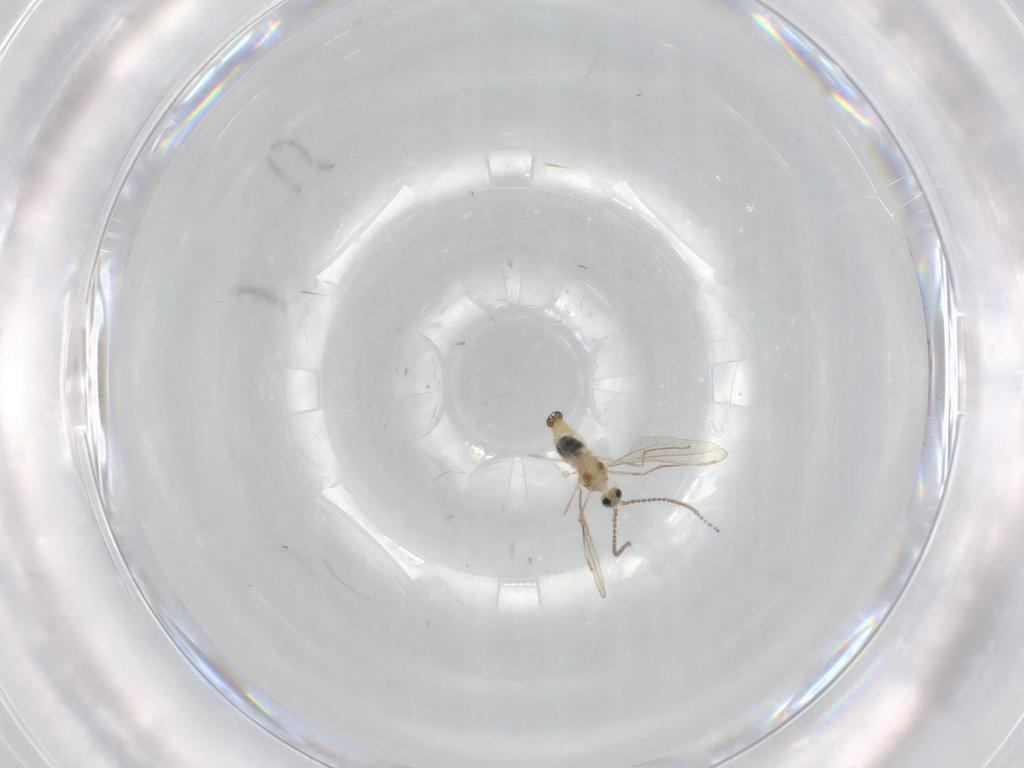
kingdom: Animalia
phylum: Arthropoda
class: Insecta
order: Diptera
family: Cecidomyiidae
